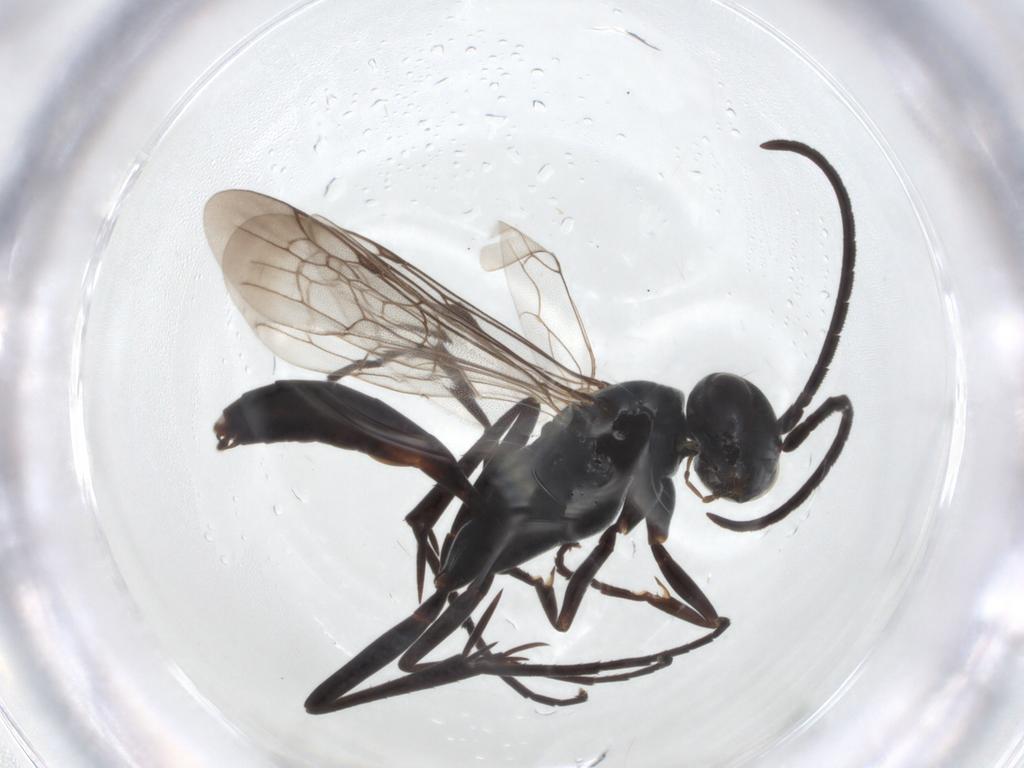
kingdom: Animalia
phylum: Arthropoda
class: Insecta
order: Hymenoptera
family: Pompilidae
